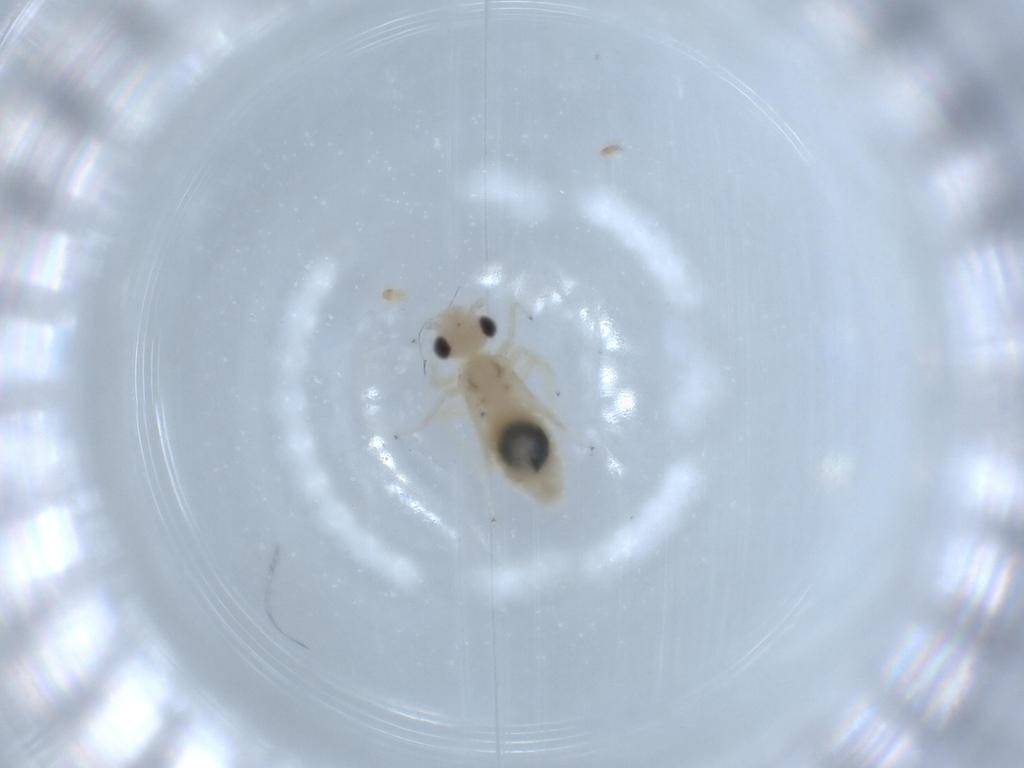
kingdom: Animalia
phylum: Arthropoda
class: Insecta
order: Psocodea
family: Caeciliusidae
